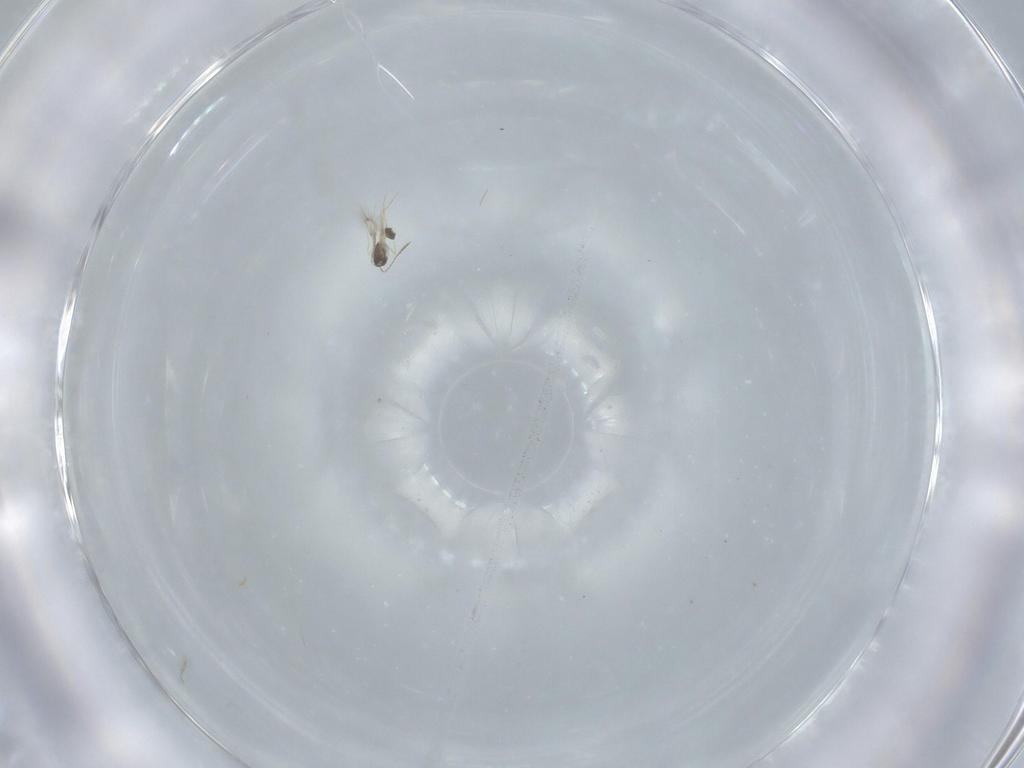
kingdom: Animalia
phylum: Arthropoda
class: Insecta
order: Hymenoptera
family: Mymarommatidae
